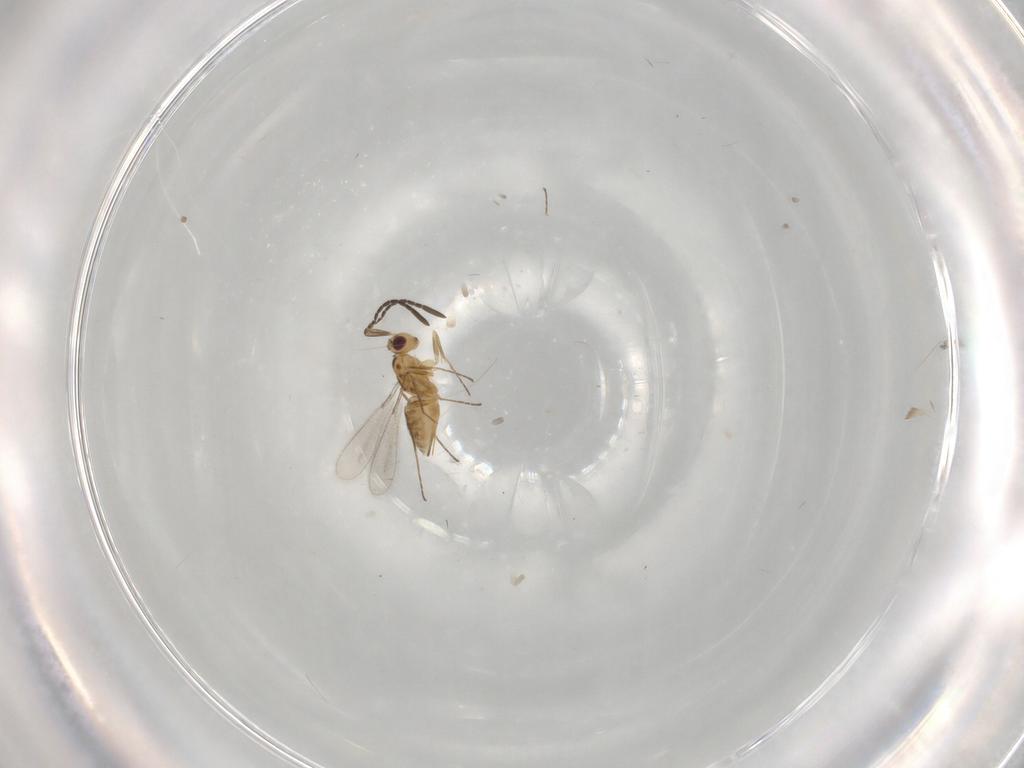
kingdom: Animalia
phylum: Arthropoda
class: Insecta
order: Hymenoptera
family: Mymaridae
